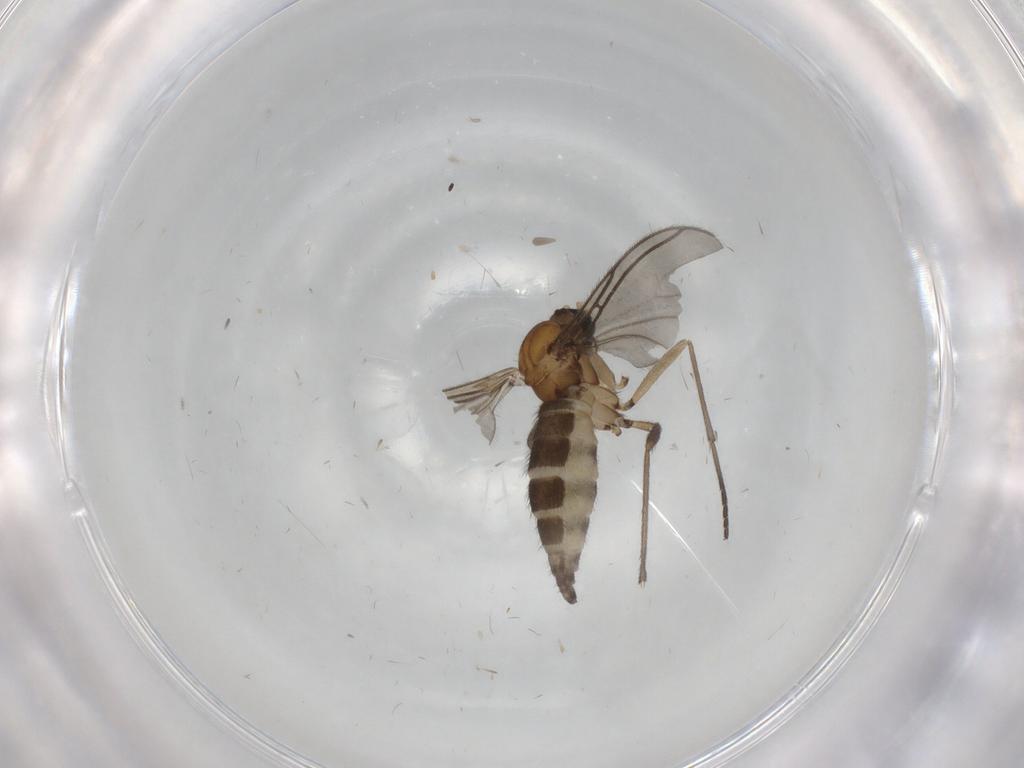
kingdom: Animalia
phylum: Arthropoda
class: Insecta
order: Diptera
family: Sciaridae
